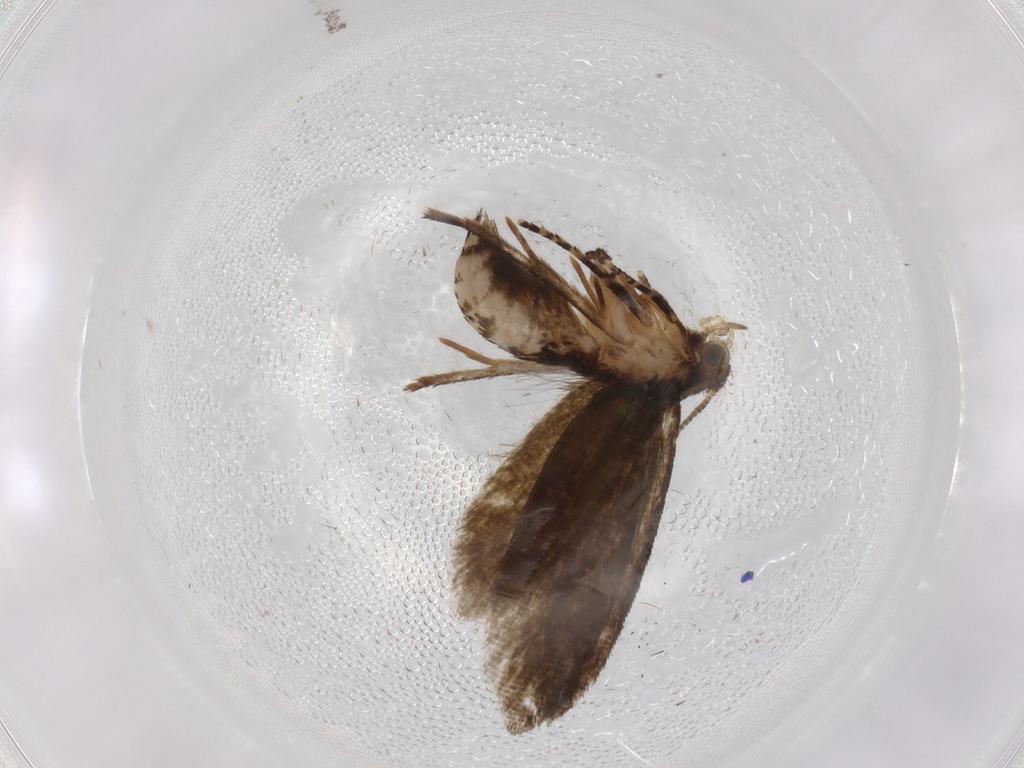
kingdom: Animalia
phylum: Arthropoda
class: Insecta
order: Lepidoptera
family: Crambidae
